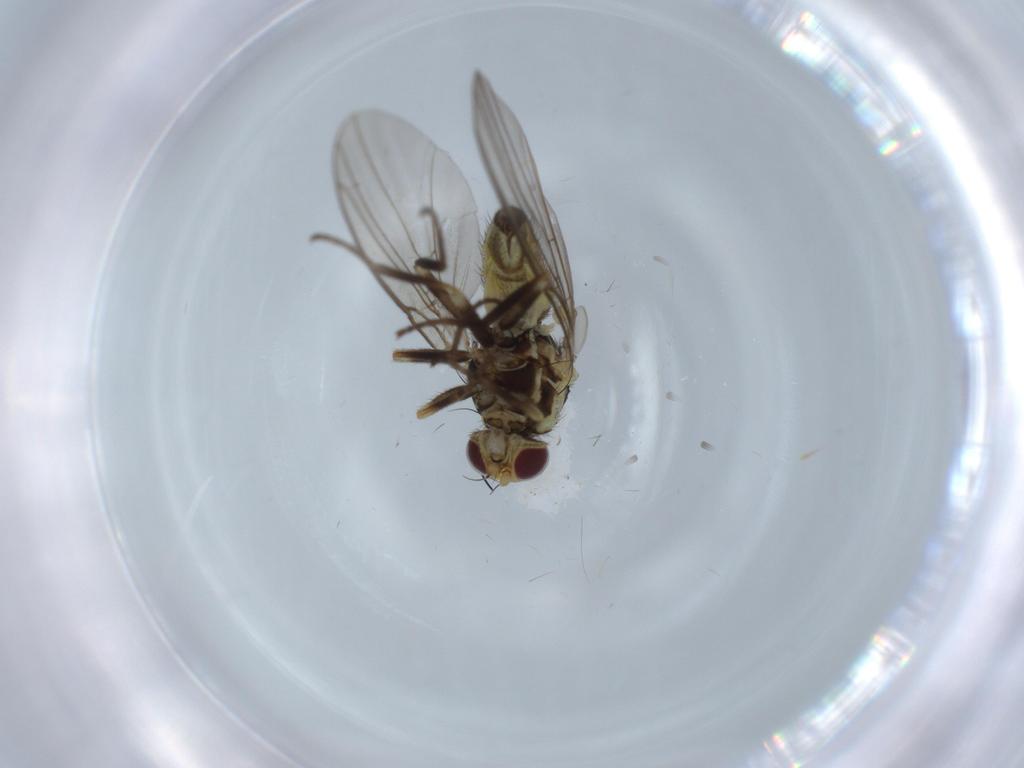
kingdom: Animalia
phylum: Arthropoda
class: Insecta
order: Diptera
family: Agromyzidae
